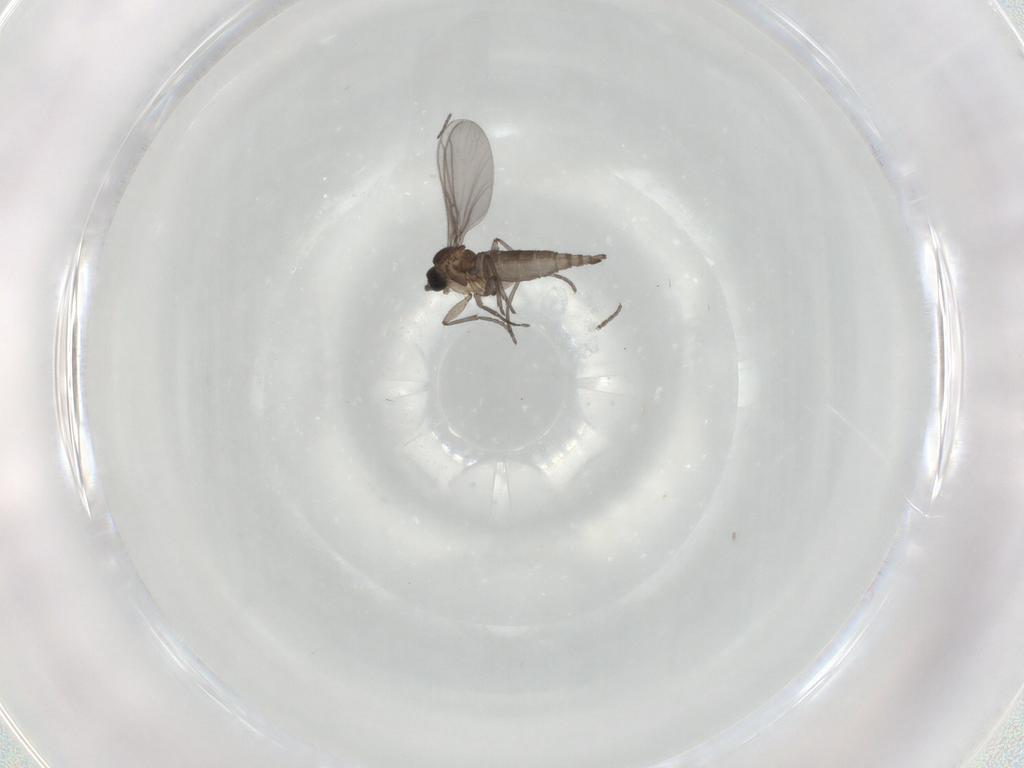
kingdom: Animalia
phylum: Arthropoda
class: Insecta
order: Diptera
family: Sciaridae
